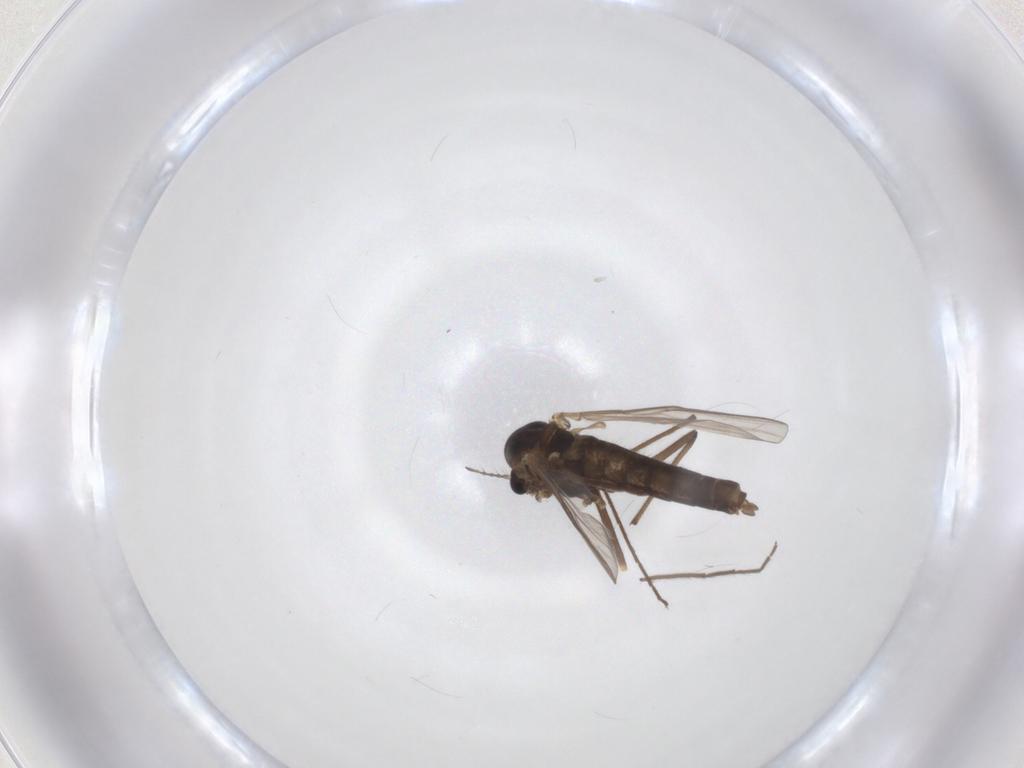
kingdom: Animalia
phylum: Arthropoda
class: Insecta
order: Diptera
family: Chironomidae
